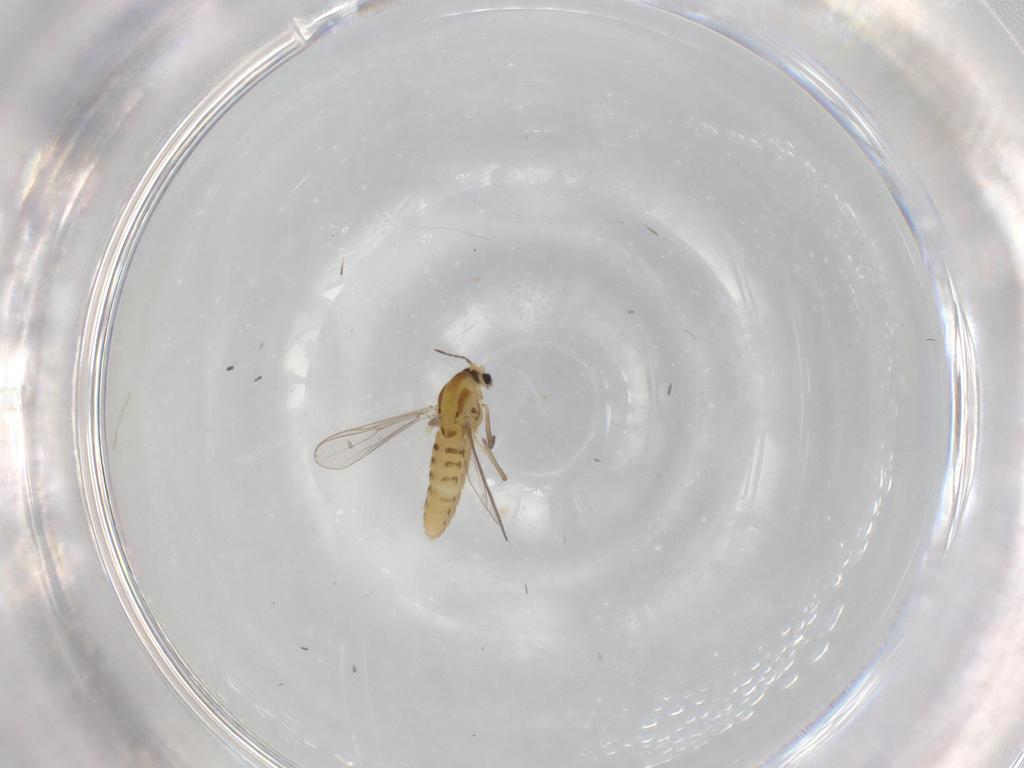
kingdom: Animalia
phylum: Arthropoda
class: Insecta
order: Diptera
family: Chironomidae
